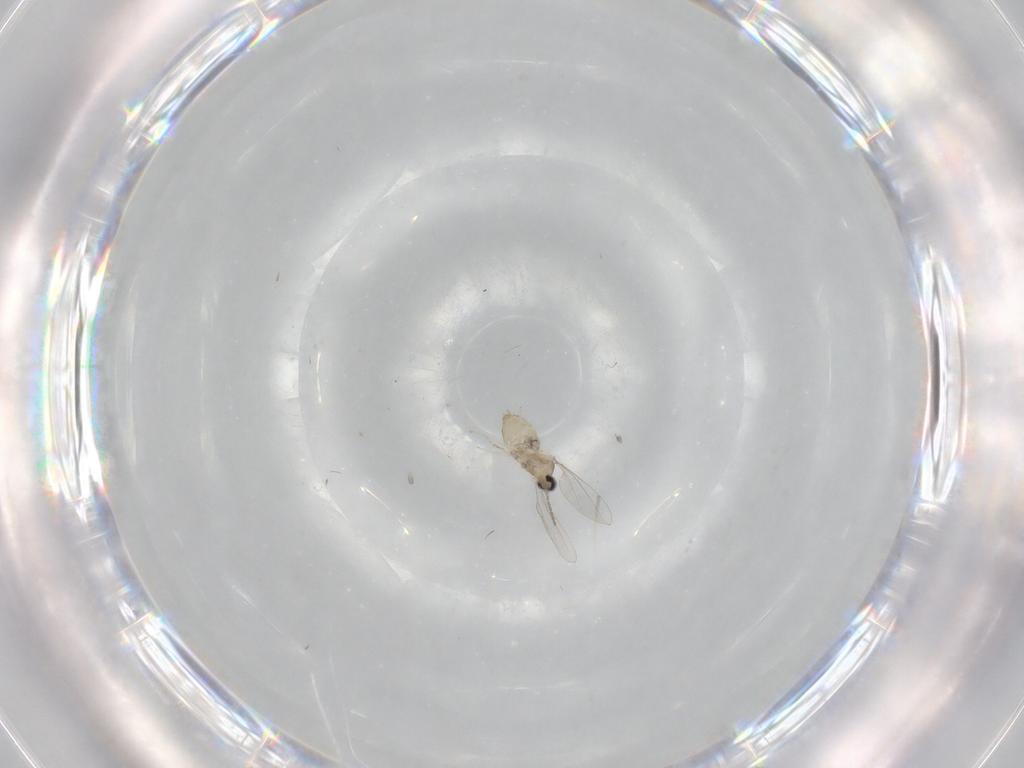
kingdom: Animalia
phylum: Arthropoda
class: Insecta
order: Diptera
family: Cecidomyiidae
